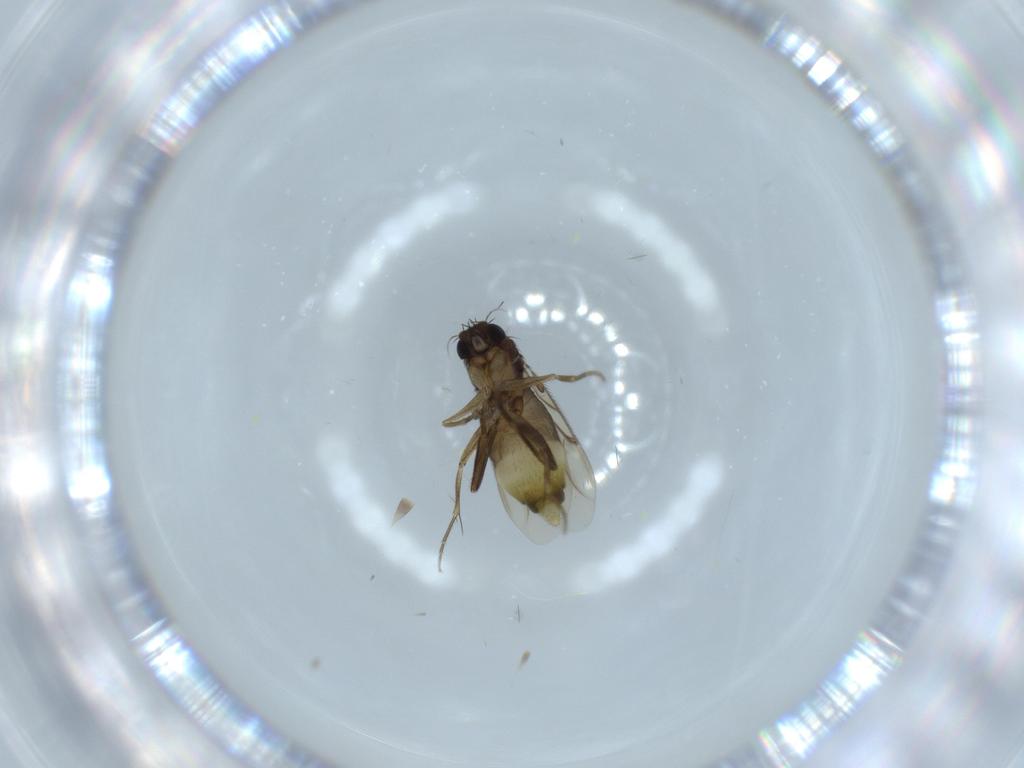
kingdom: Animalia
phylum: Arthropoda
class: Insecta
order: Diptera
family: Phoridae
